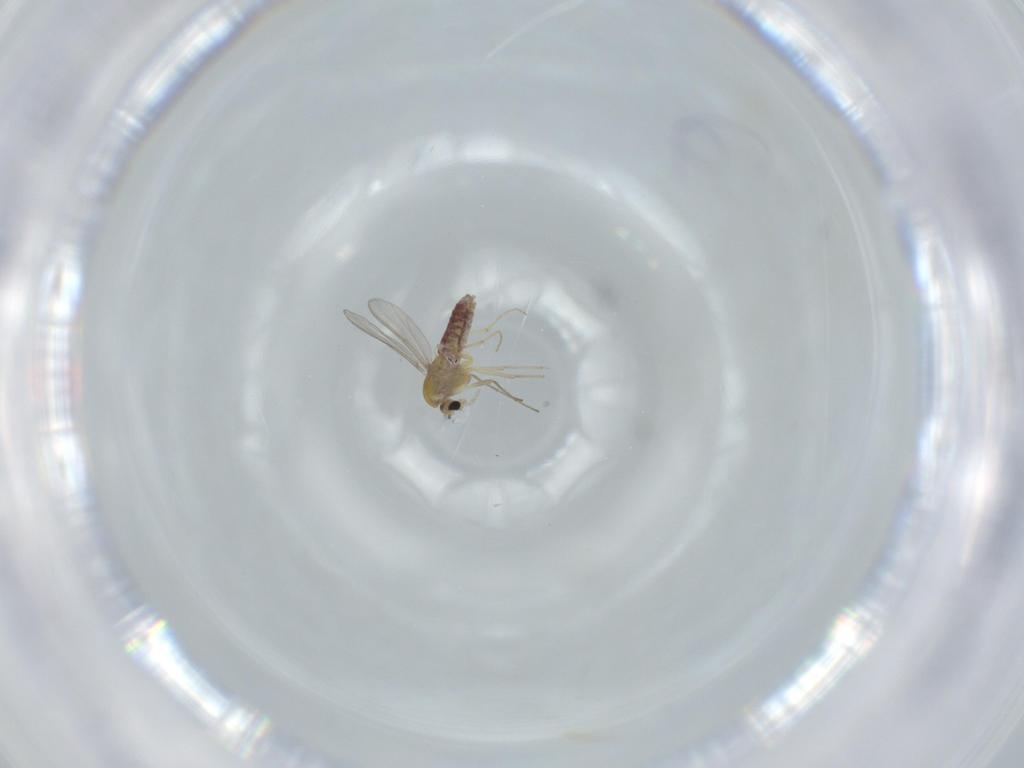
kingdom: Animalia
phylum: Arthropoda
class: Insecta
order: Diptera
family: Chironomidae
